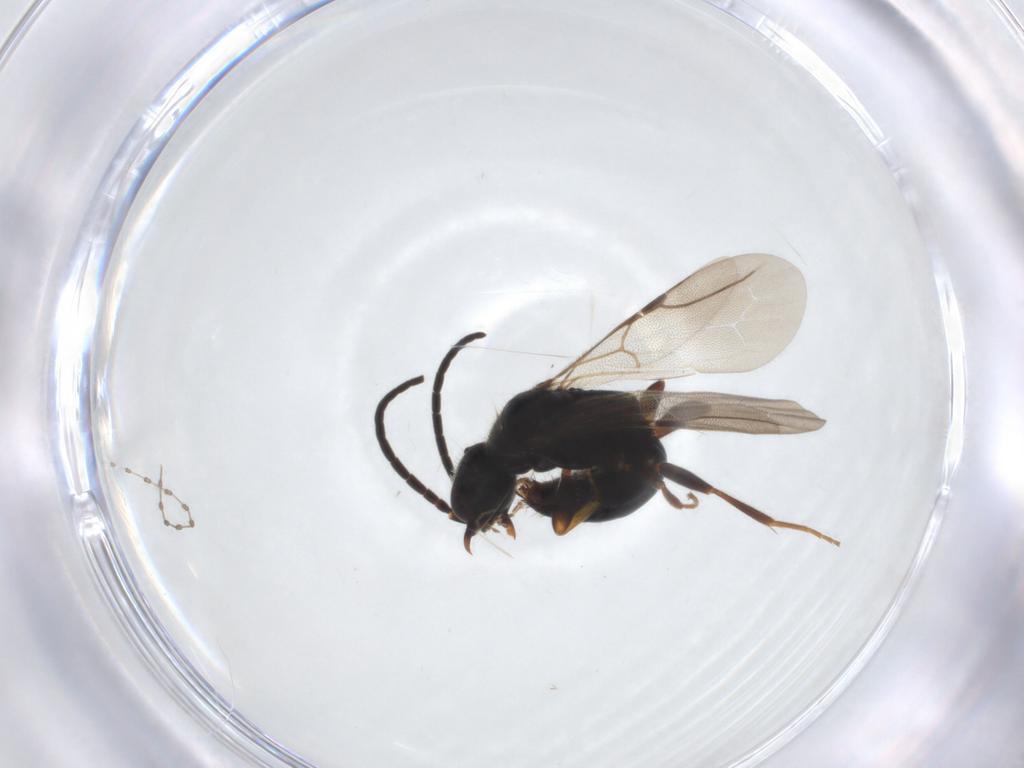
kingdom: Animalia
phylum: Arthropoda
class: Insecta
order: Hymenoptera
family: Bethylidae
